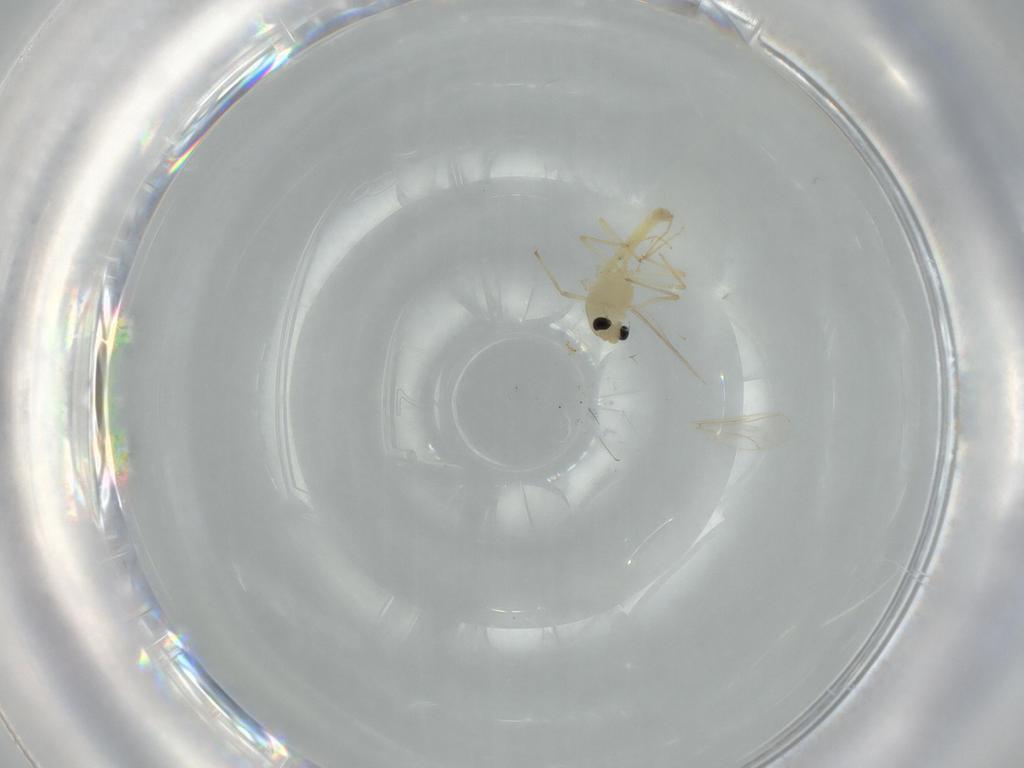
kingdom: Animalia
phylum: Arthropoda
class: Insecta
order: Diptera
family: Chironomidae
